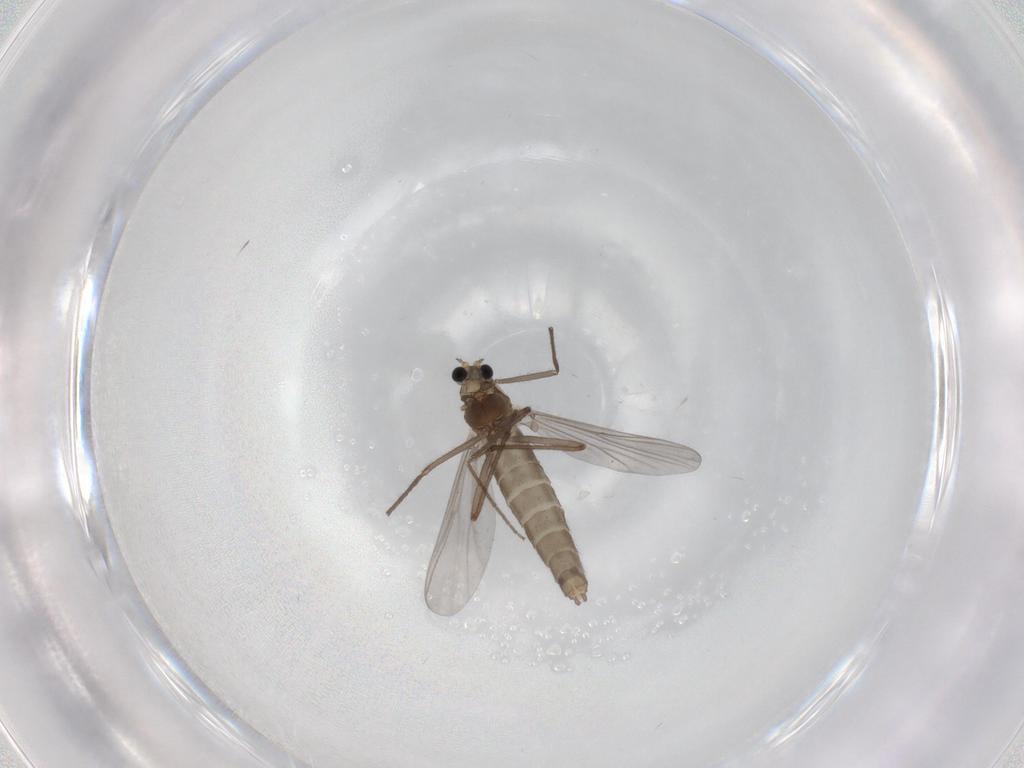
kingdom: Animalia
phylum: Arthropoda
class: Insecta
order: Diptera
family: Chironomidae
